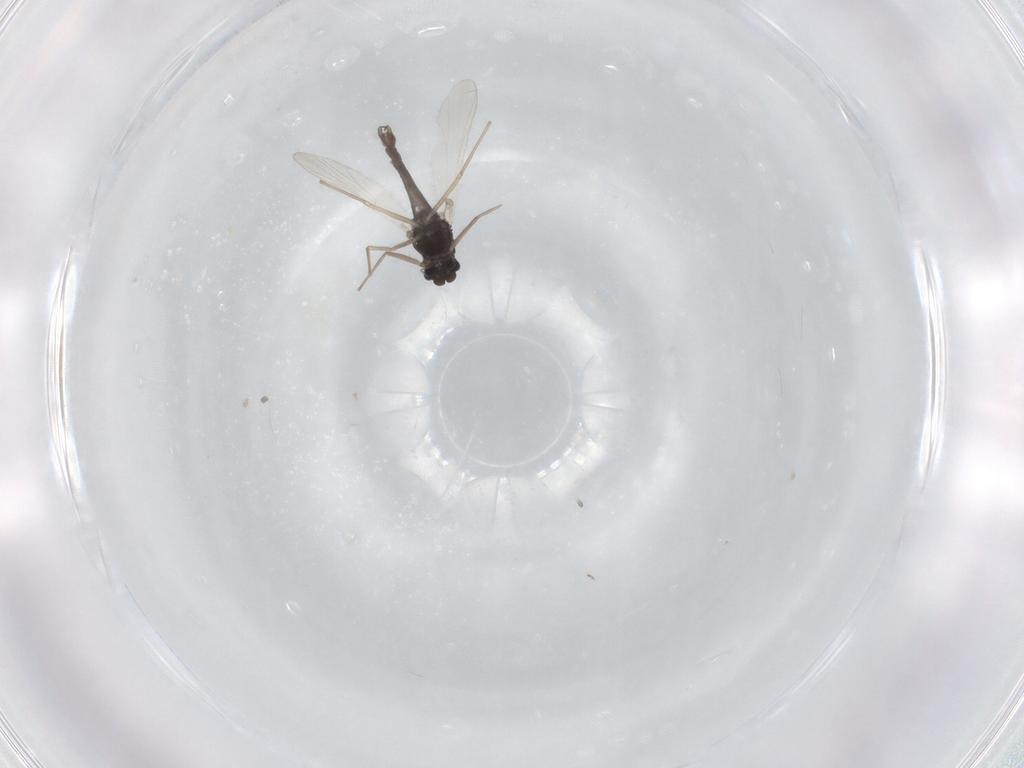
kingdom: Animalia
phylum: Arthropoda
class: Insecta
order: Diptera
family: Chironomidae
